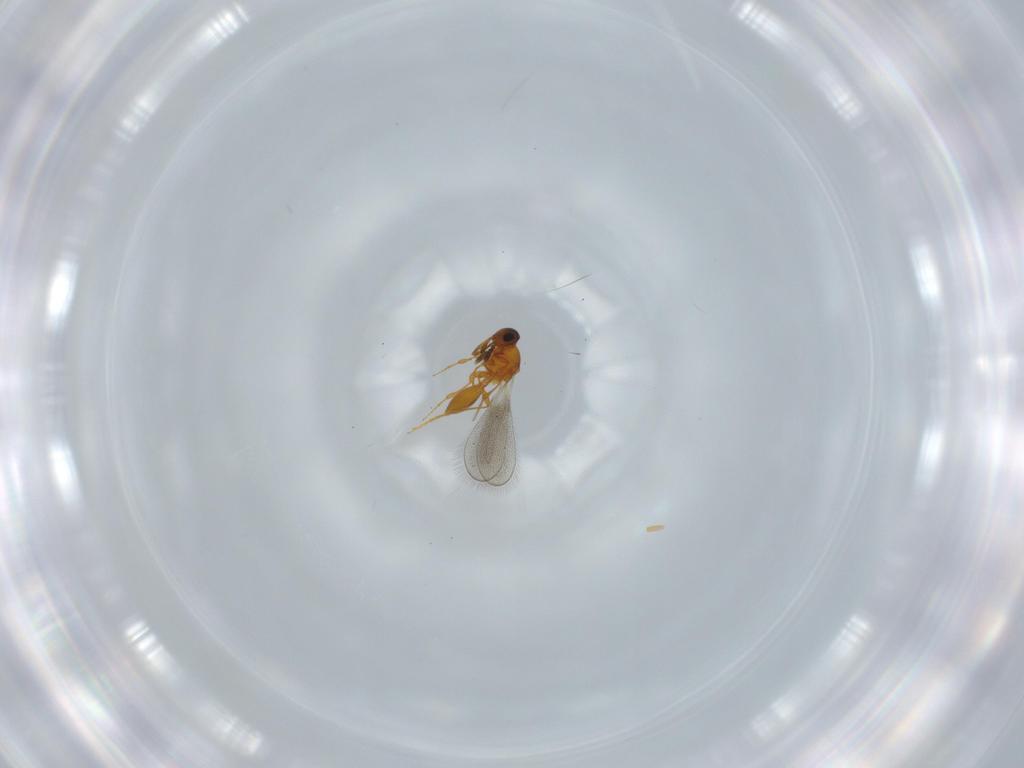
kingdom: Animalia
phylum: Arthropoda
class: Insecta
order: Hymenoptera
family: Platygastridae
